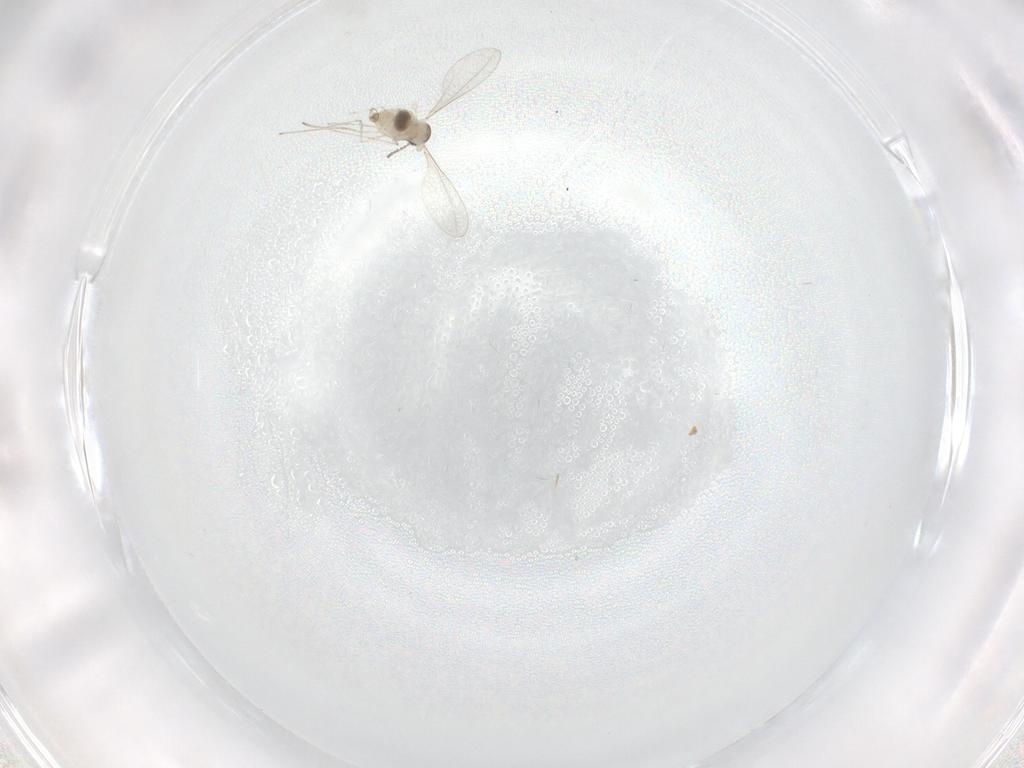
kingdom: Animalia
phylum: Arthropoda
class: Insecta
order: Diptera
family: Cecidomyiidae
